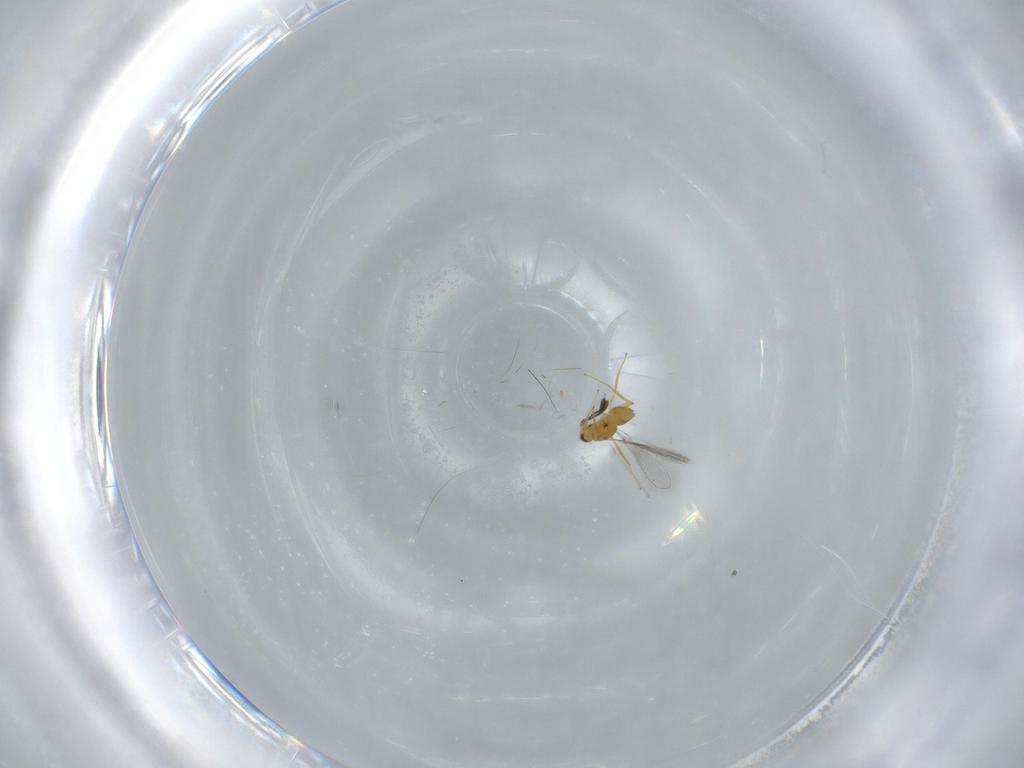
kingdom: Animalia
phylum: Arthropoda
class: Insecta
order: Hymenoptera
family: Mymaridae
